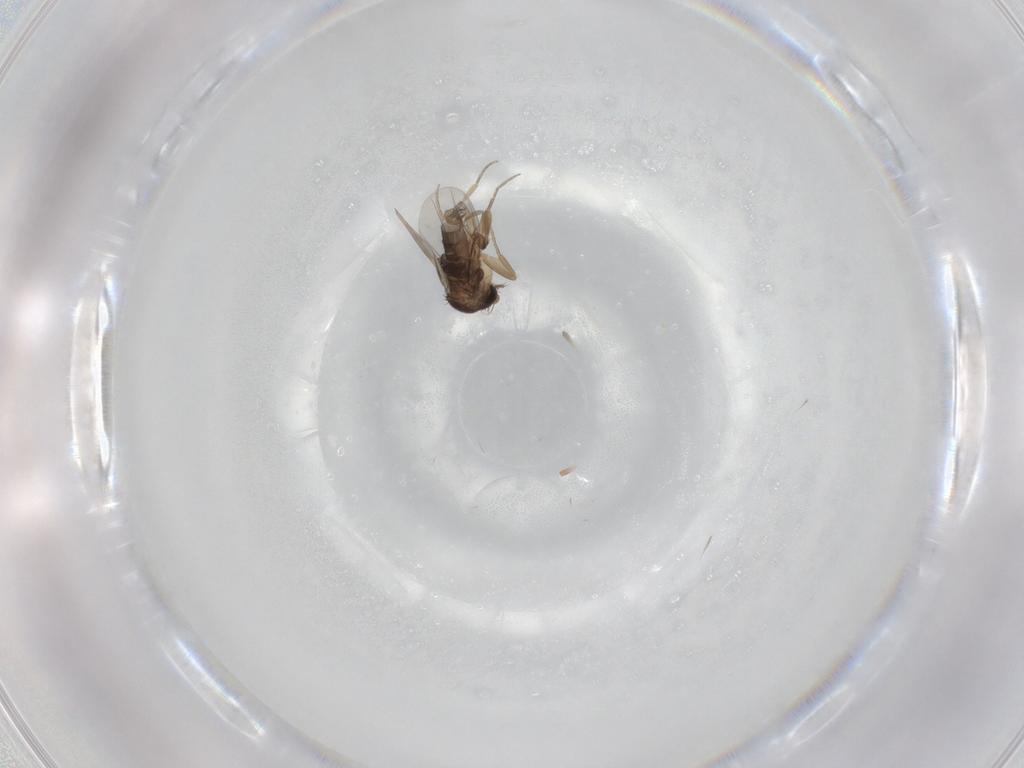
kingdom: Animalia
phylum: Arthropoda
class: Insecta
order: Diptera
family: Phoridae
